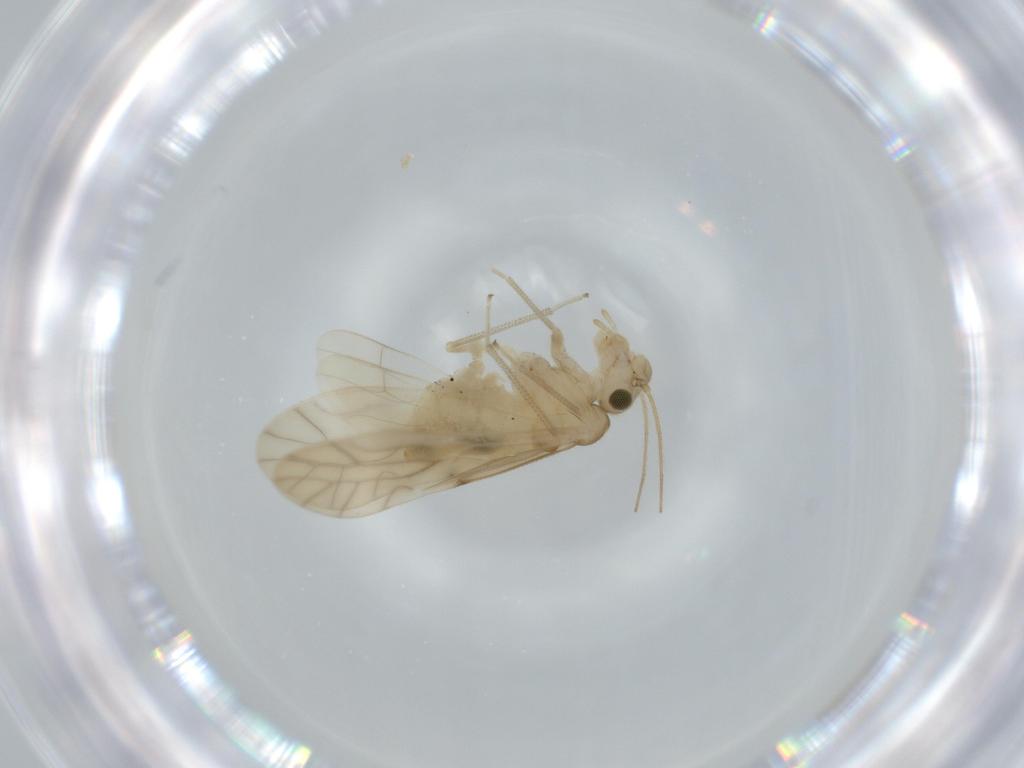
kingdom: Animalia
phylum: Arthropoda
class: Insecta
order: Psocodea
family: Caeciliusidae
